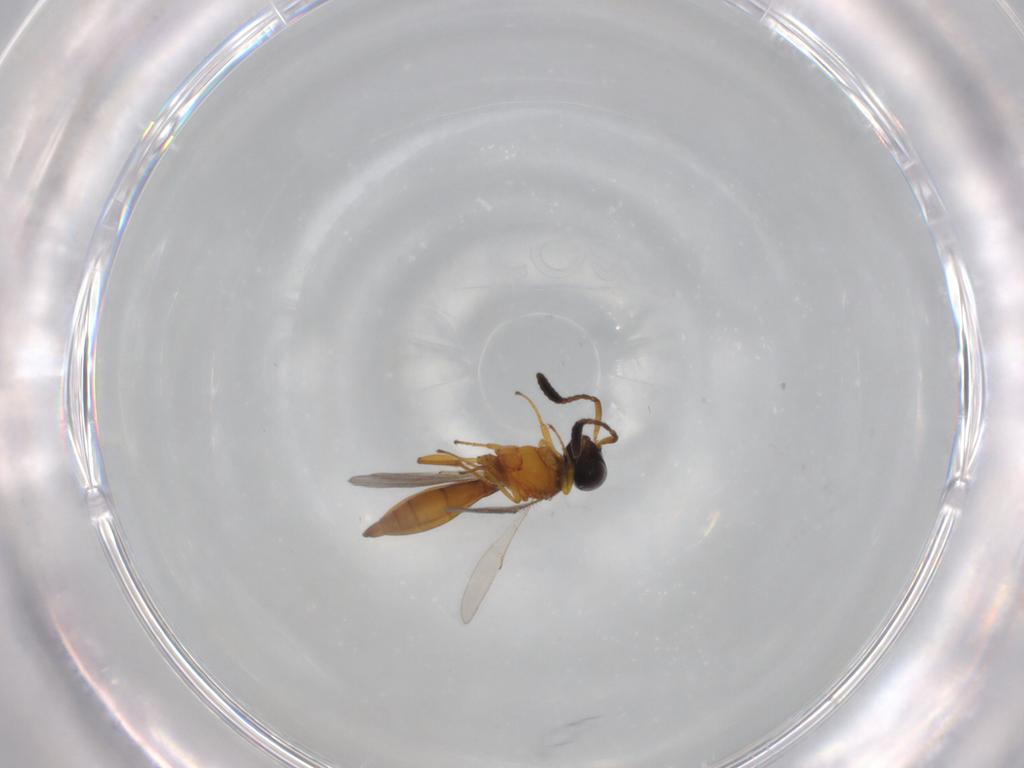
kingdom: Animalia
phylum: Arthropoda
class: Insecta
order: Hymenoptera
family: Scelionidae
